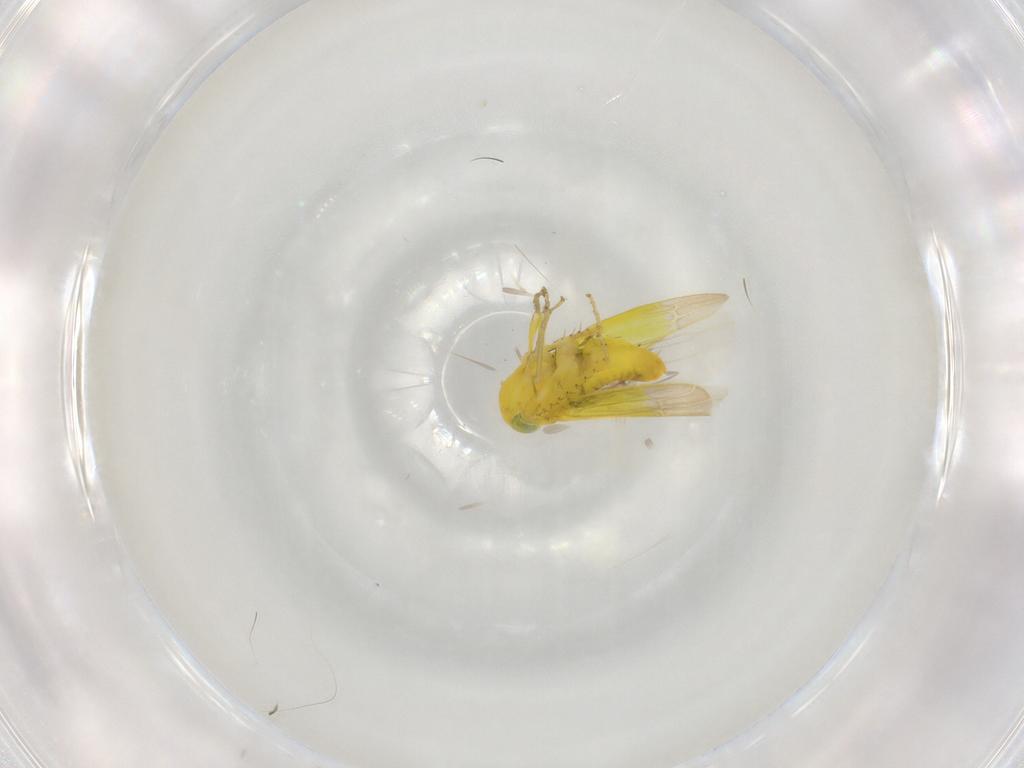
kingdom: Animalia
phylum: Arthropoda
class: Insecta
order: Hemiptera
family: Cicadellidae
